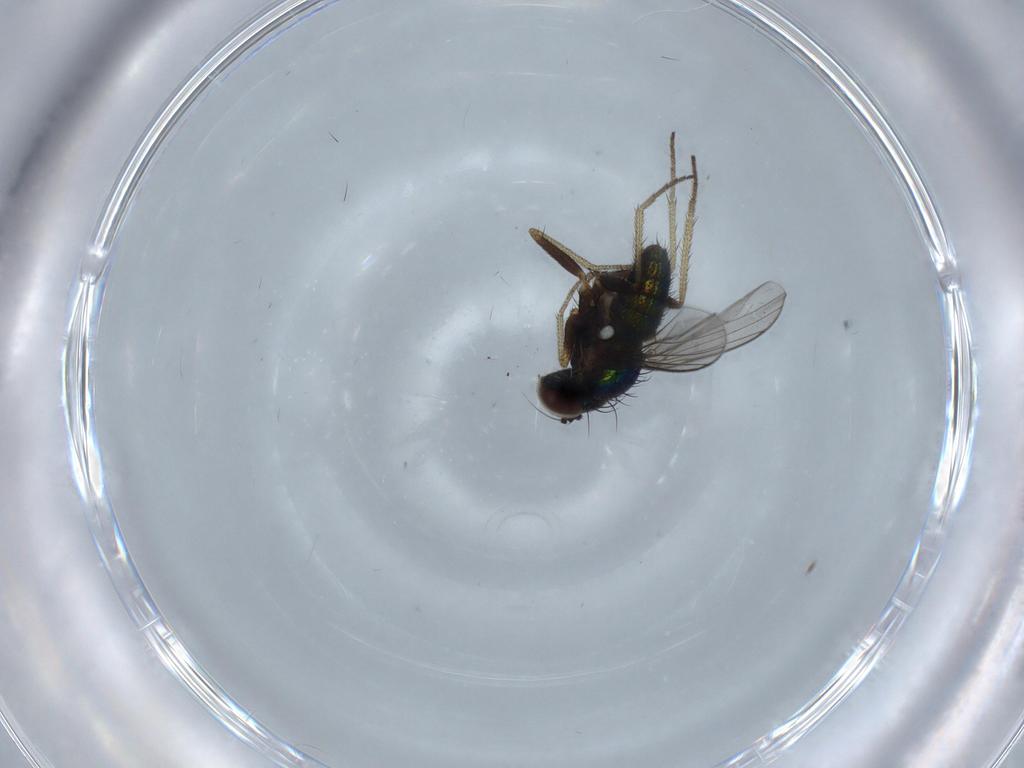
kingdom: Animalia
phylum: Arthropoda
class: Insecta
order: Diptera
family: Dolichopodidae
